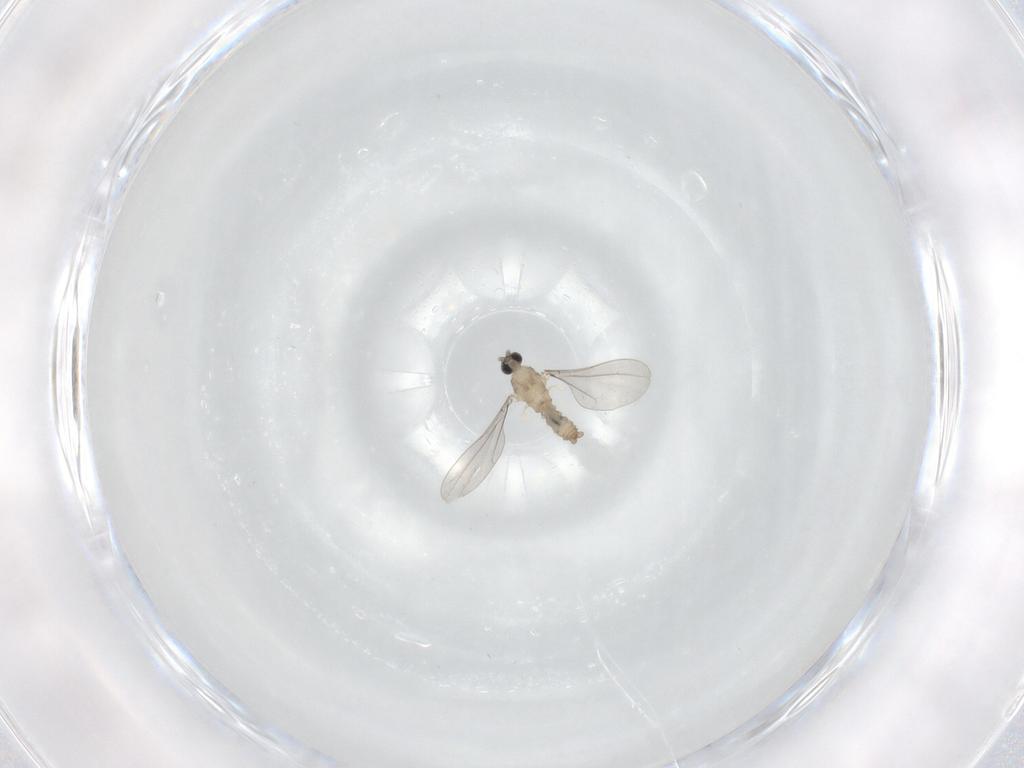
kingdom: Animalia
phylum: Arthropoda
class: Insecta
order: Diptera
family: Cecidomyiidae
